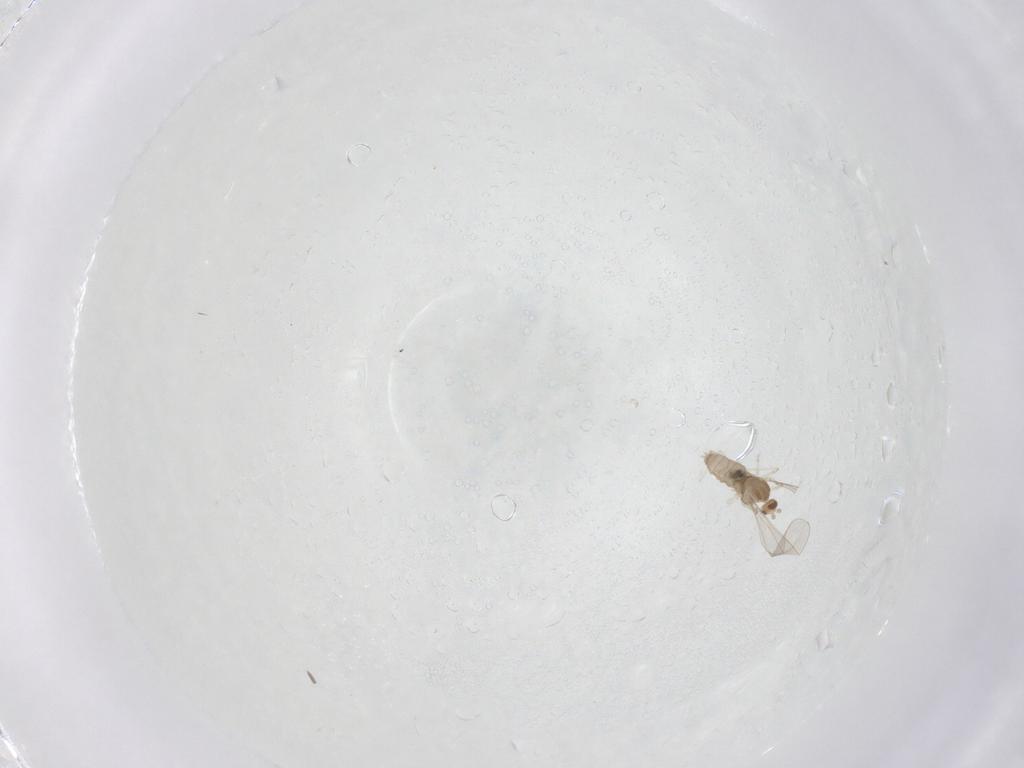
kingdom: Animalia
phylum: Arthropoda
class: Insecta
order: Diptera
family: Cecidomyiidae
